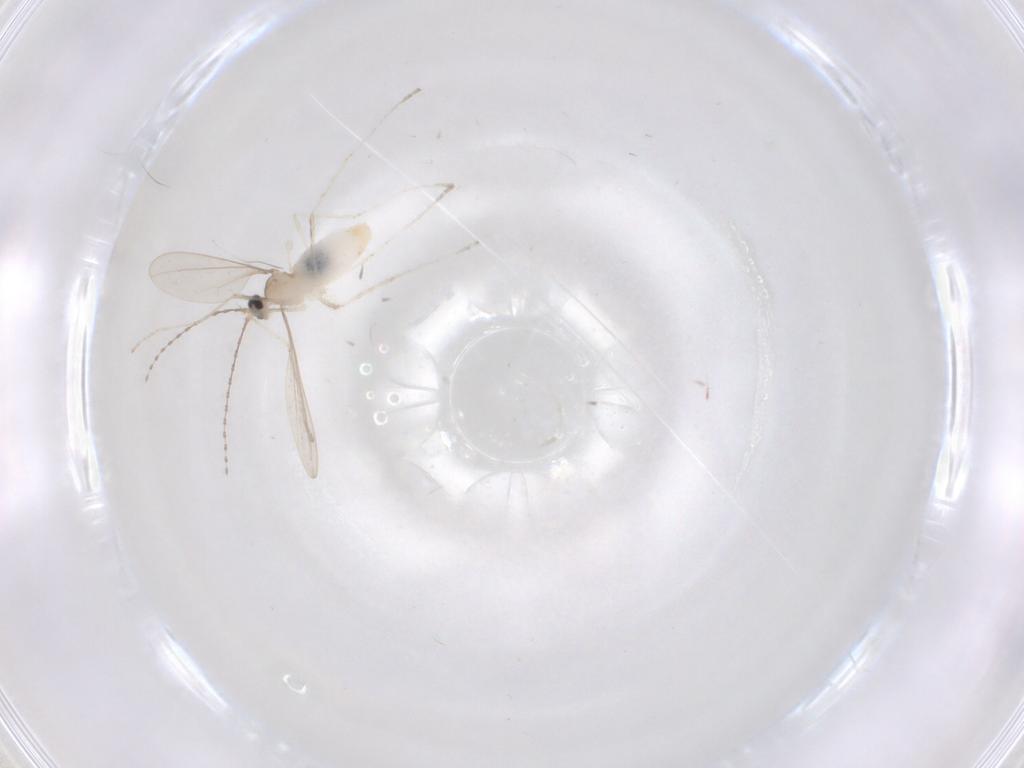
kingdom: Animalia
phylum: Arthropoda
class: Insecta
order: Diptera
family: Cecidomyiidae
